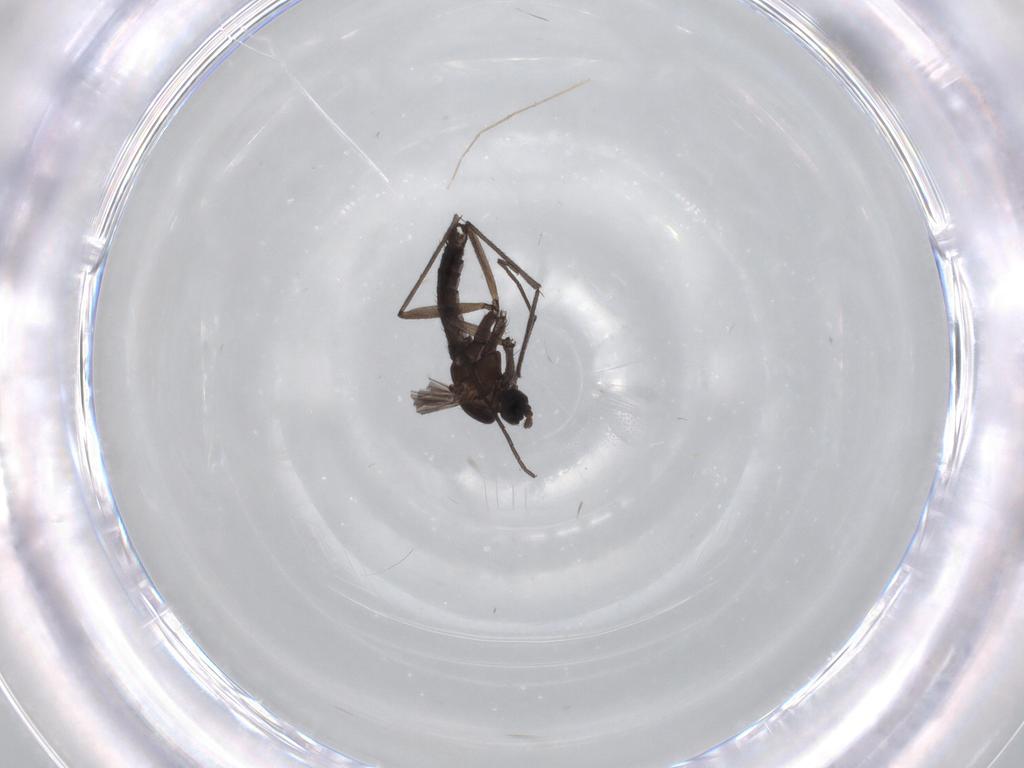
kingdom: Animalia
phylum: Arthropoda
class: Insecta
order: Diptera
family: Sciaridae
